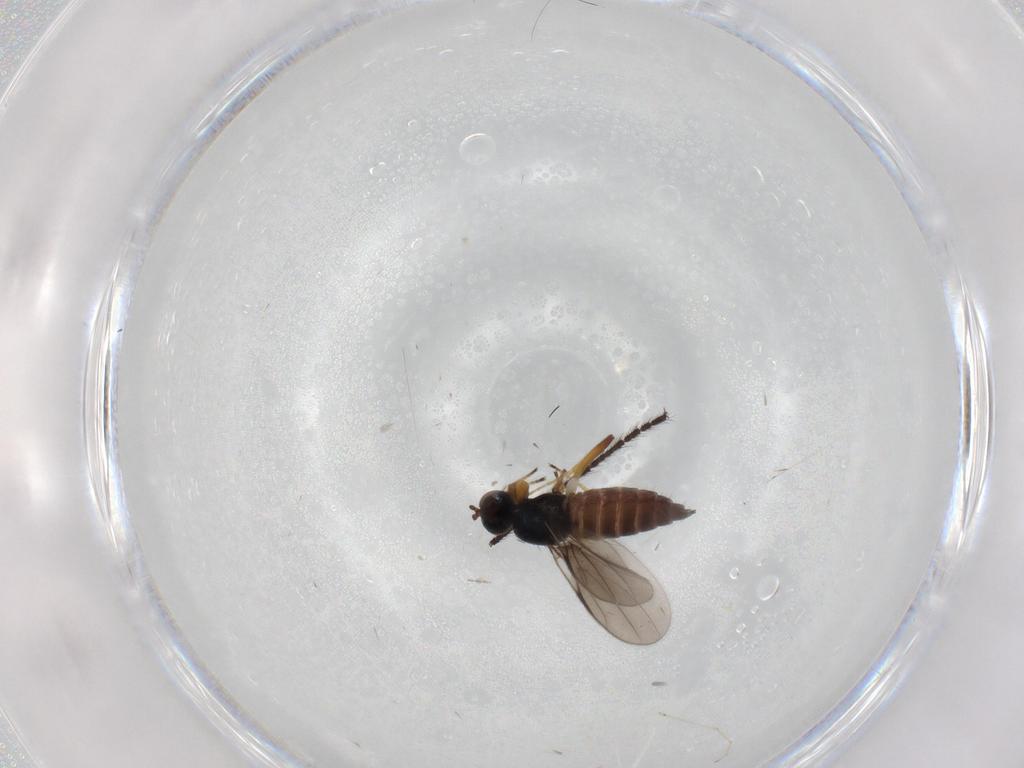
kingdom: Animalia
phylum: Arthropoda
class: Insecta
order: Diptera
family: Hybotidae
